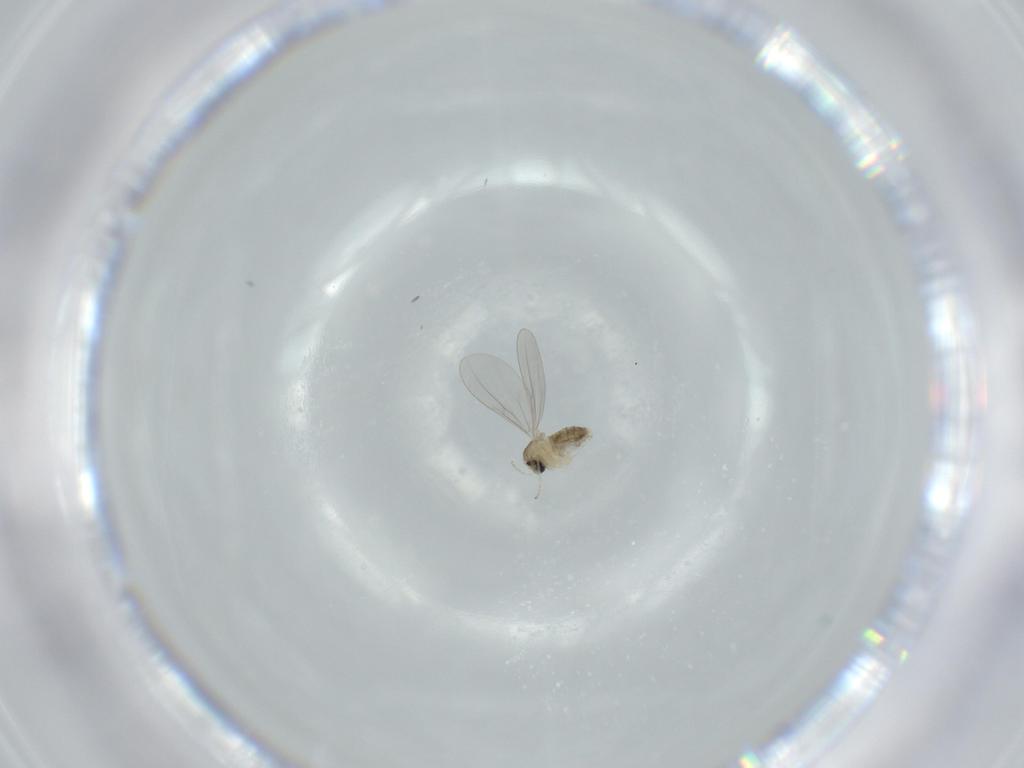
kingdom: Animalia
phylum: Arthropoda
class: Insecta
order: Diptera
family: Cecidomyiidae
